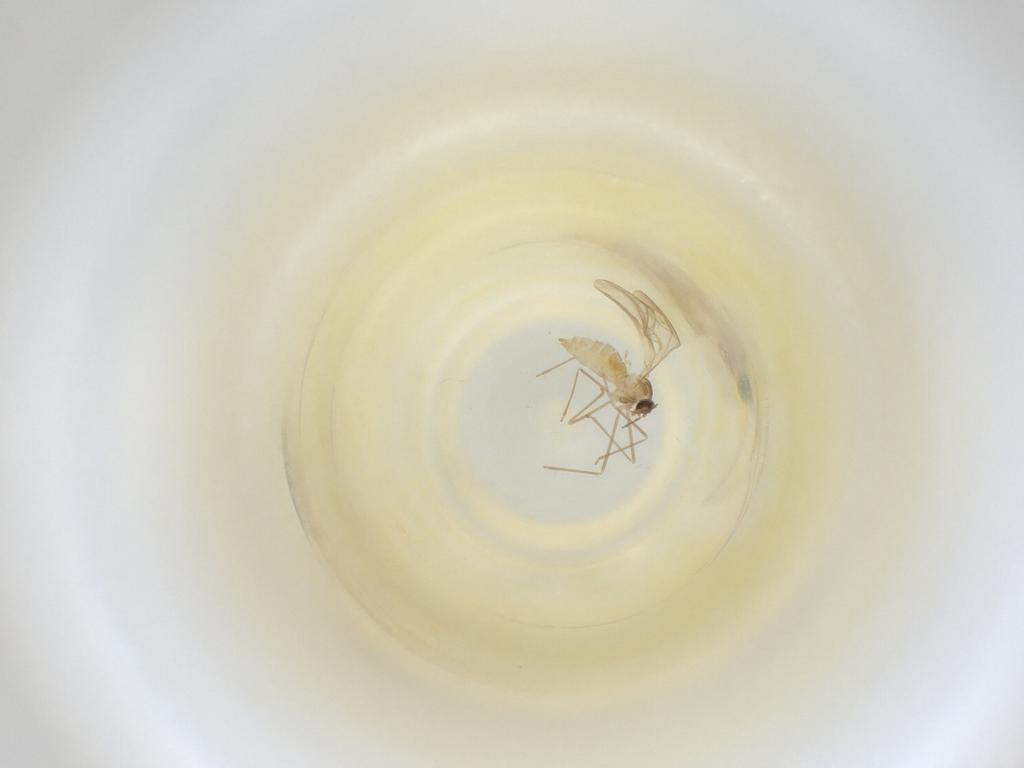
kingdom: Animalia
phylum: Arthropoda
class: Insecta
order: Diptera
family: Cecidomyiidae
